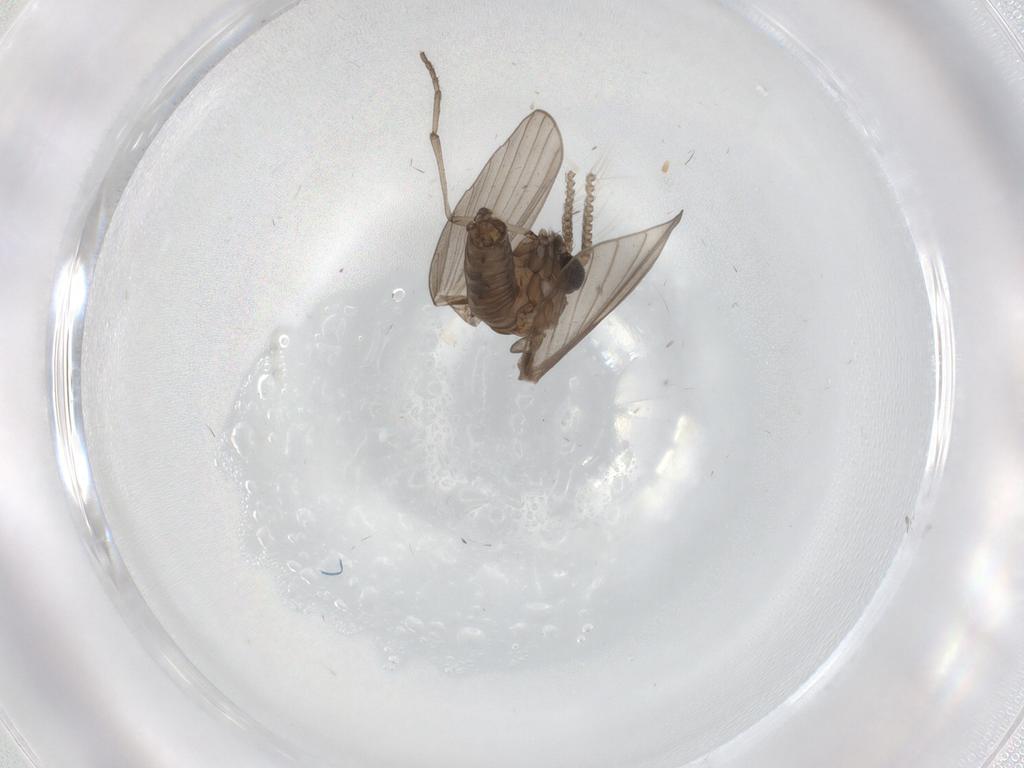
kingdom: Animalia
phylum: Arthropoda
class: Insecta
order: Diptera
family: Psychodidae
